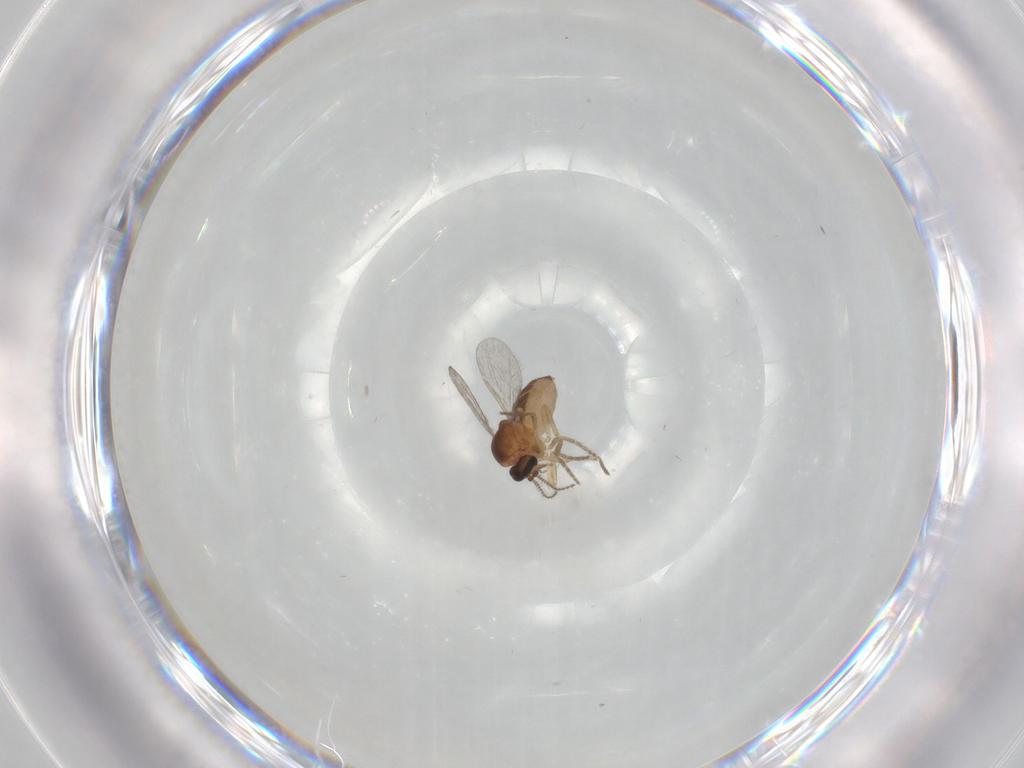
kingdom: Animalia
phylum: Arthropoda
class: Insecta
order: Diptera
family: Ceratopogonidae
